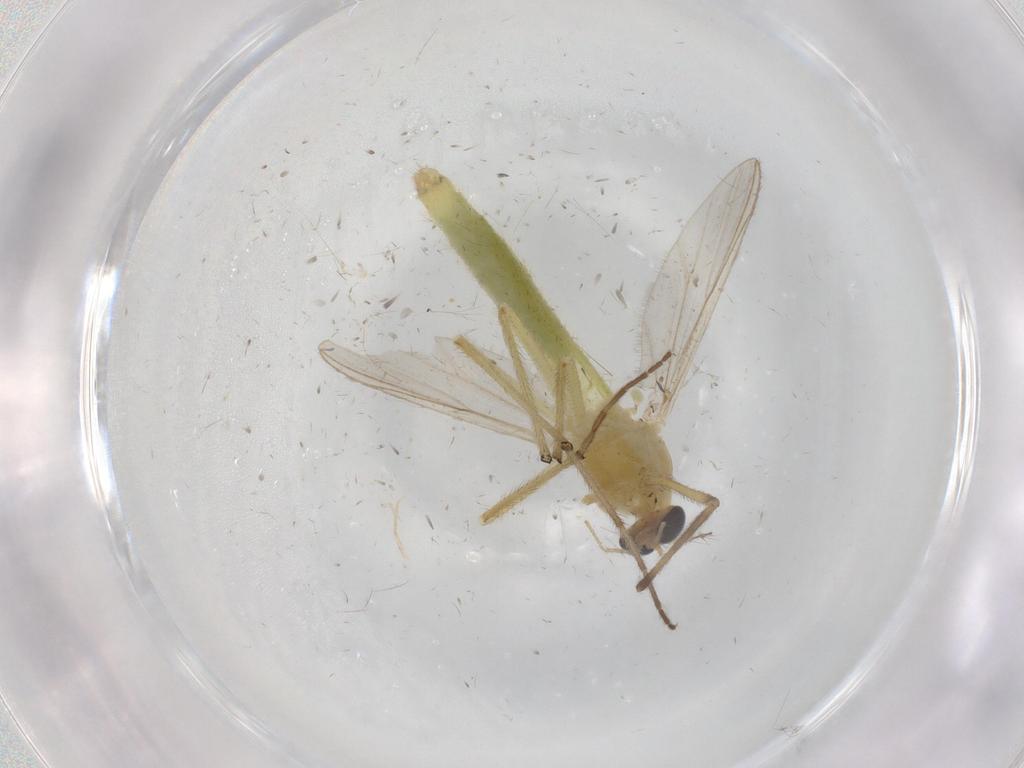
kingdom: Animalia
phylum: Arthropoda
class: Insecta
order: Diptera
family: Chironomidae
